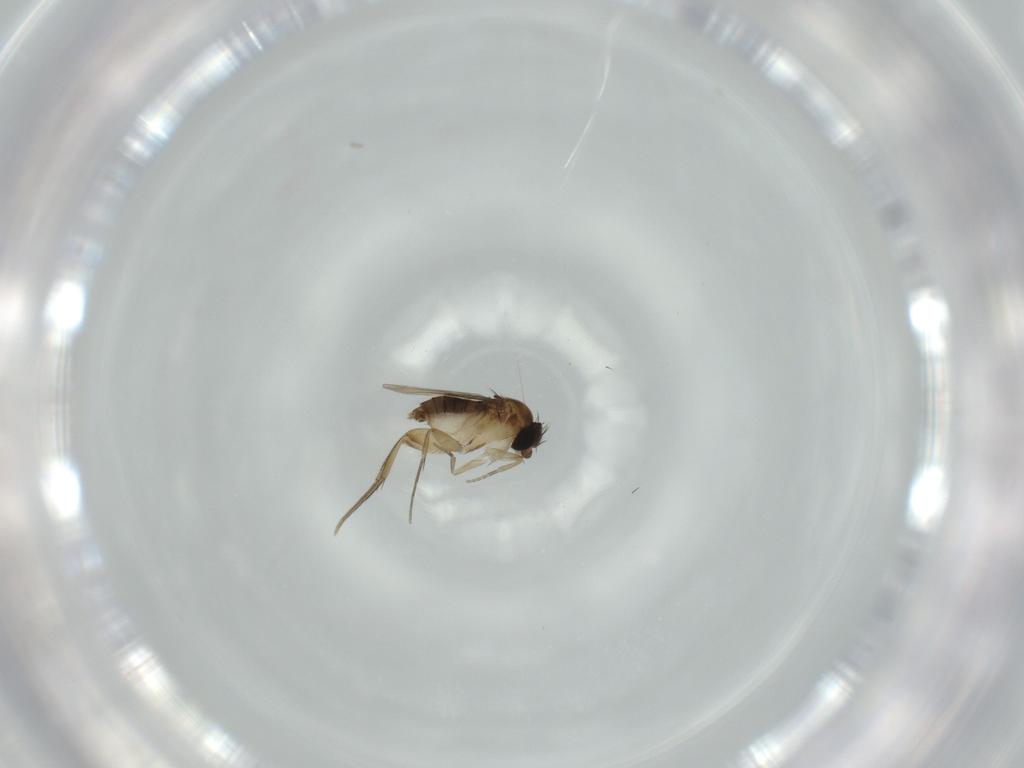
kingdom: Animalia
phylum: Arthropoda
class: Insecta
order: Diptera
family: Phoridae
